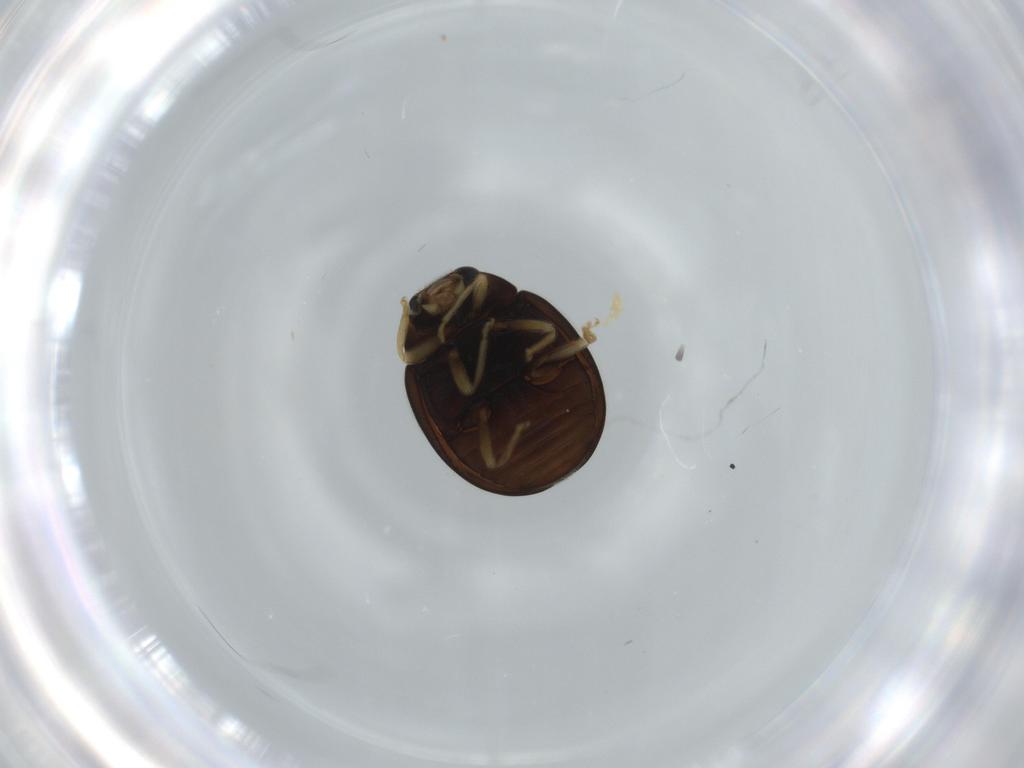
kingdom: Animalia
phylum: Arthropoda
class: Insecta
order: Coleoptera
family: Coccinellidae
